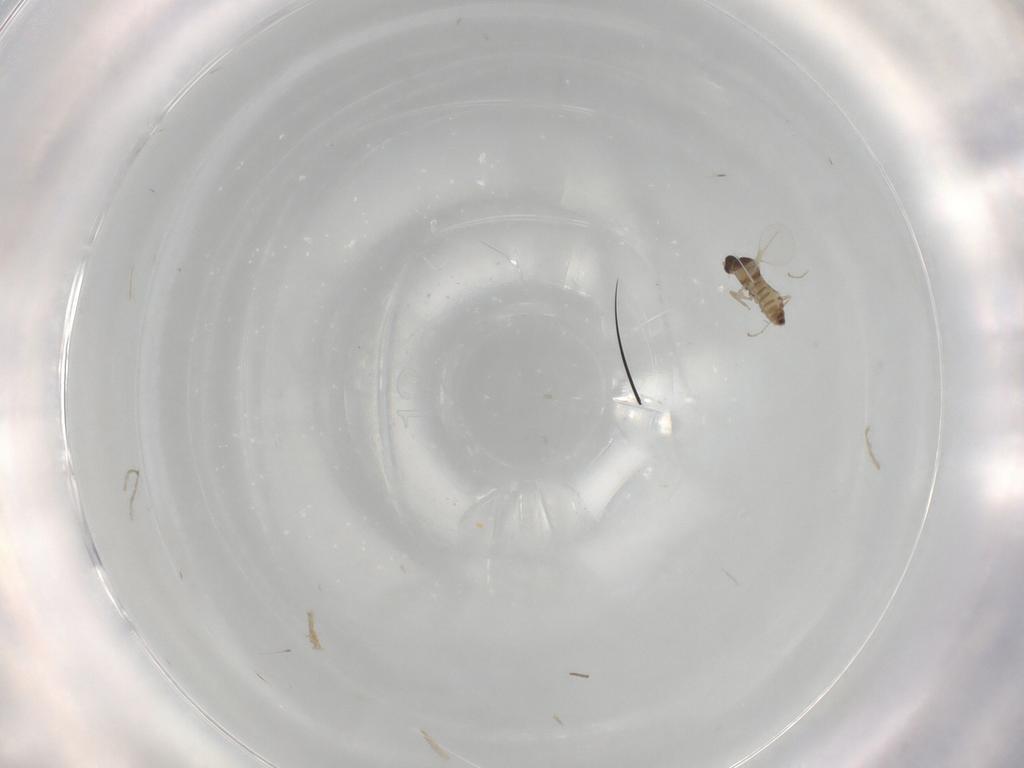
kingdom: Animalia
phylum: Arthropoda
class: Insecta
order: Diptera
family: Cecidomyiidae
